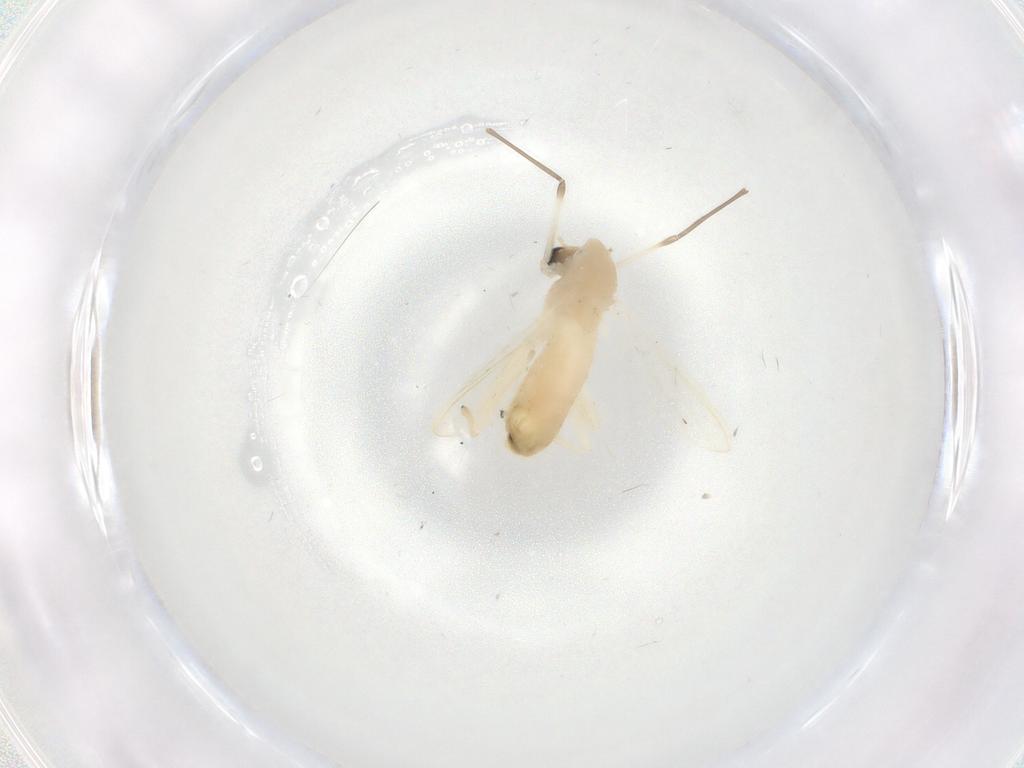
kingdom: Animalia
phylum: Arthropoda
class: Insecta
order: Diptera
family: Chironomidae
